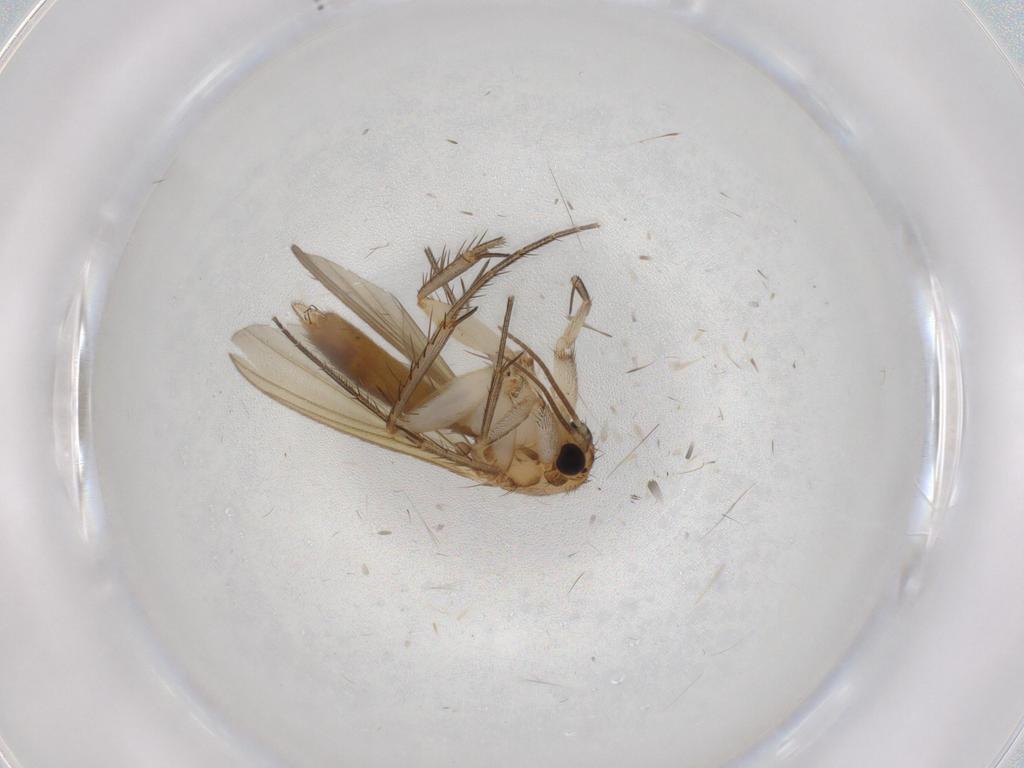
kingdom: Animalia
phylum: Arthropoda
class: Insecta
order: Diptera
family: Mycetophilidae
